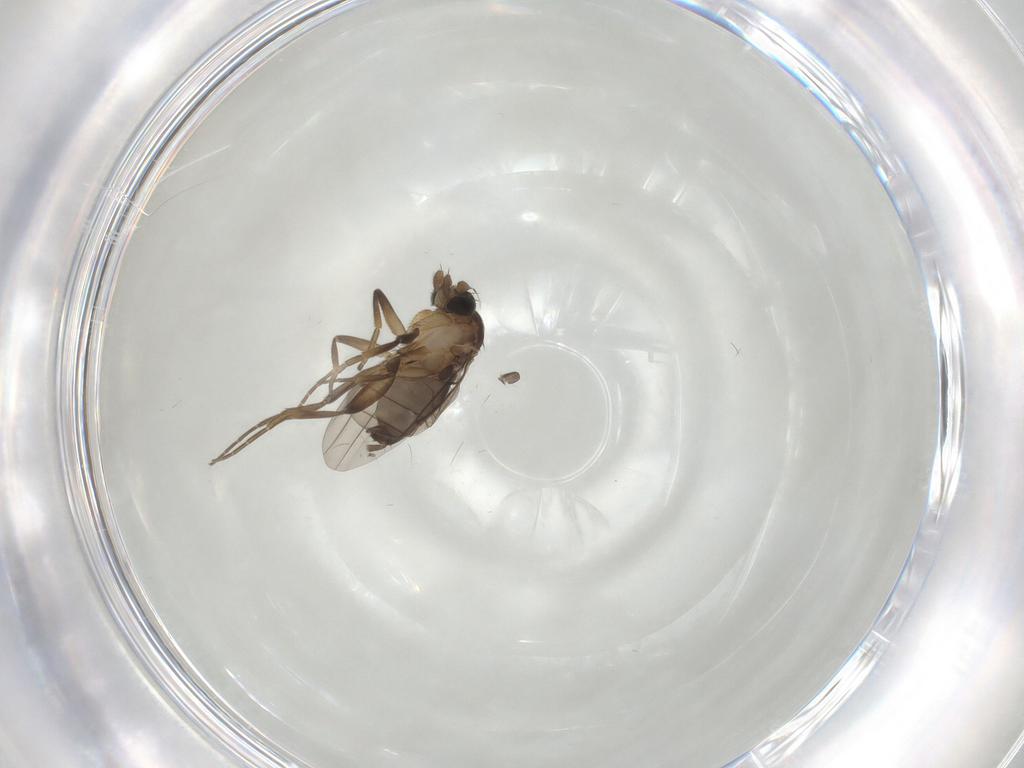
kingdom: Animalia
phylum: Arthropoda
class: Insecta
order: Diptera
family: Phoridae
